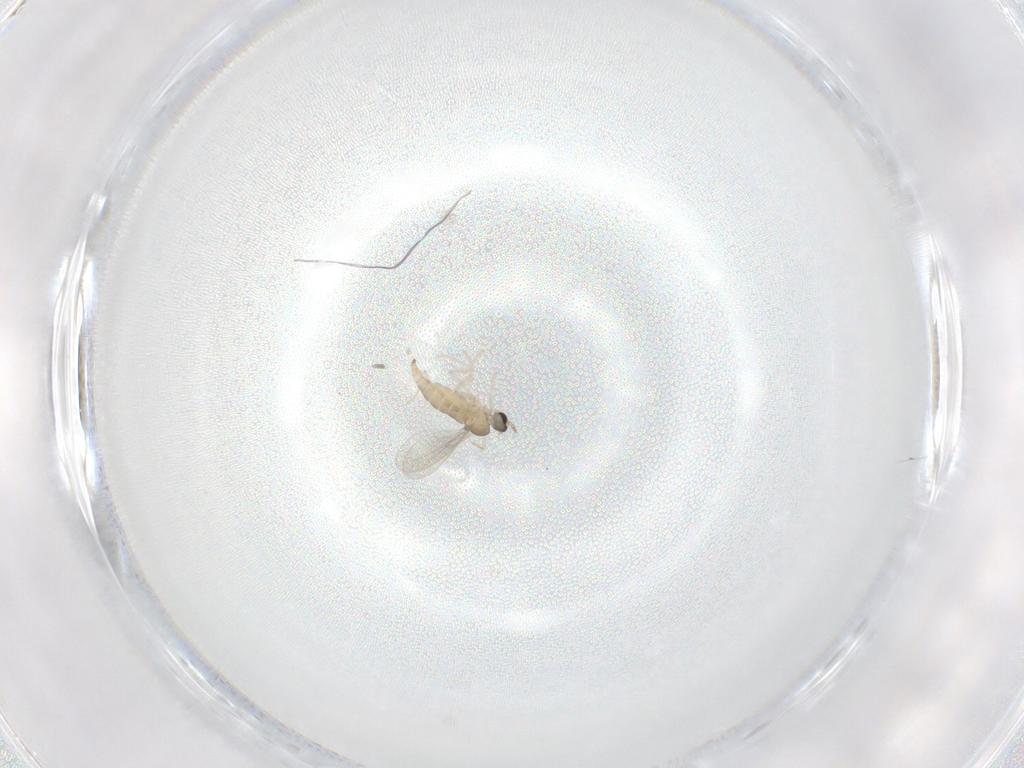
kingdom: Animalia
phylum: Arthropoda
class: Insecta
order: Diptera
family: Cecidomyiidae
